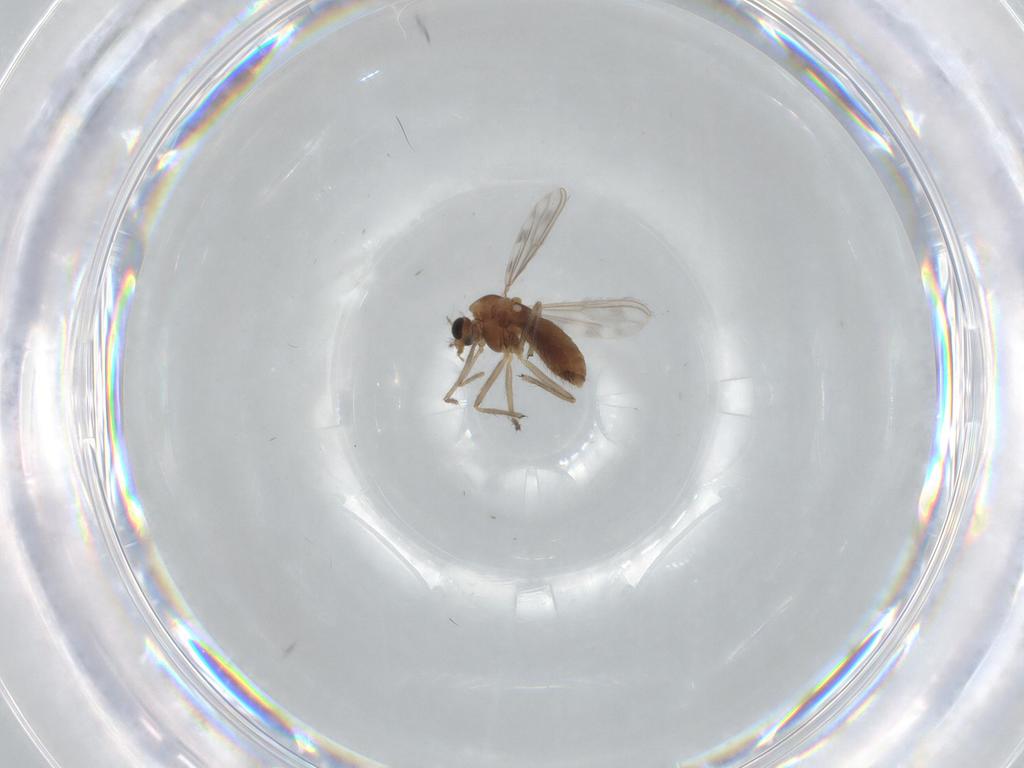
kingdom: Animalia
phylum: Arthropoda
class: Insecta
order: Diptera
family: Chironomidae
